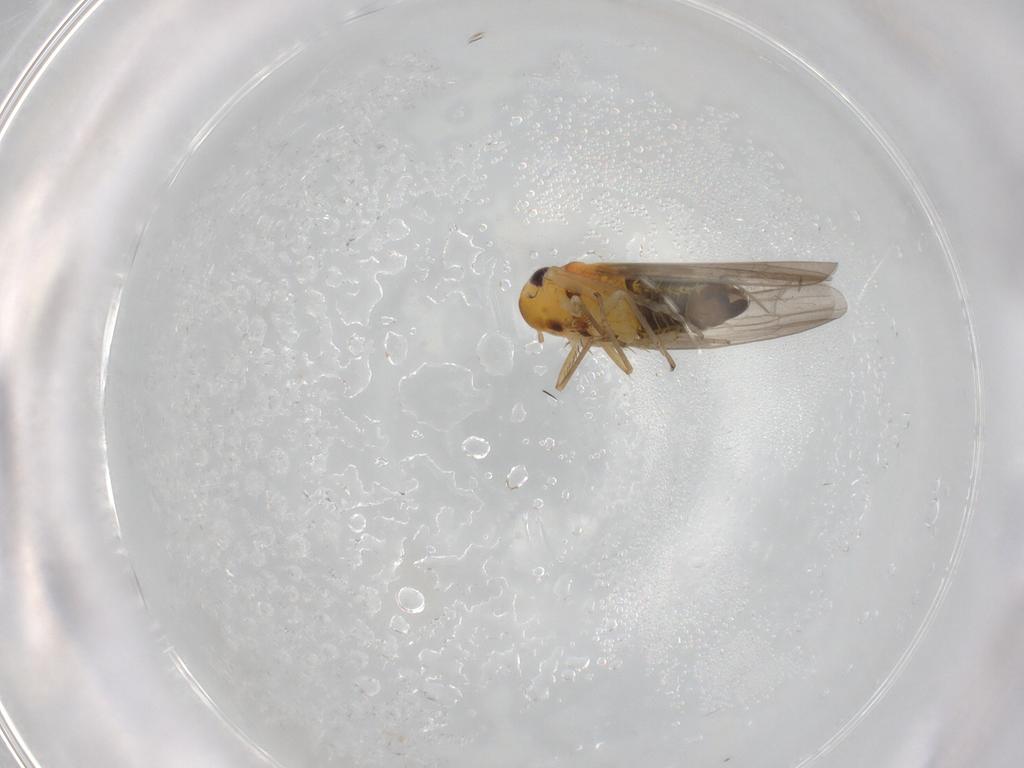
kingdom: Animalia
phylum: Arthropoda
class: Insecta
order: Hemiptera
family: Cicadellidae
